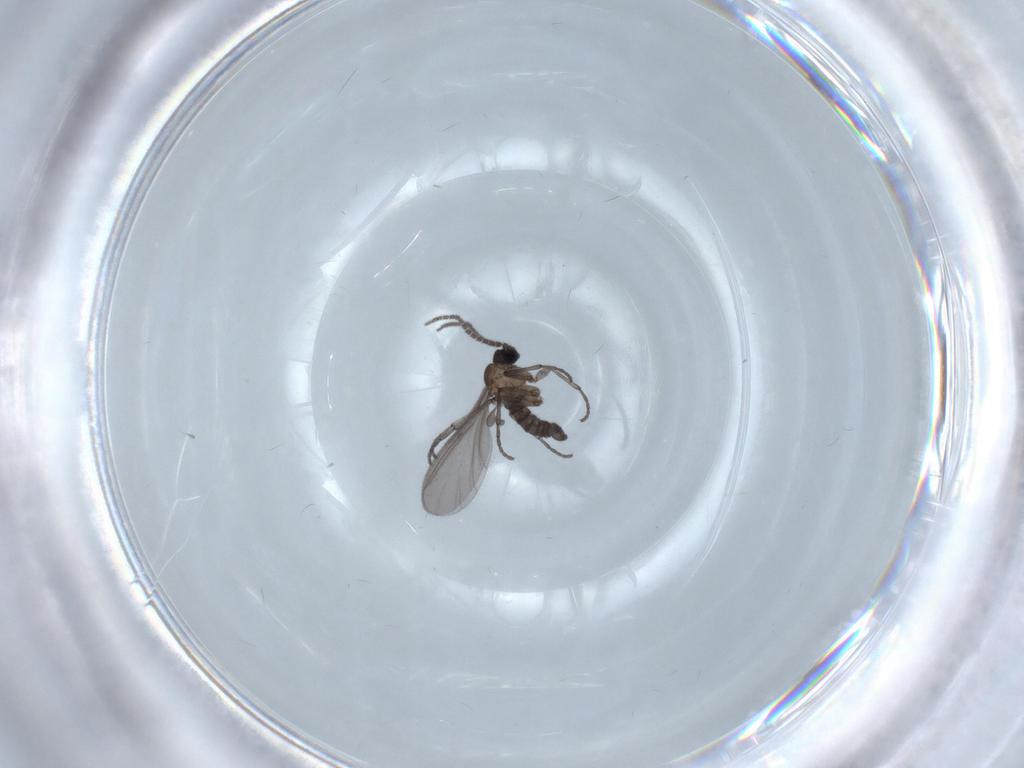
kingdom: Animalia
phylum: Arthropoda
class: Insecta
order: Diptera
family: Sciaridae
